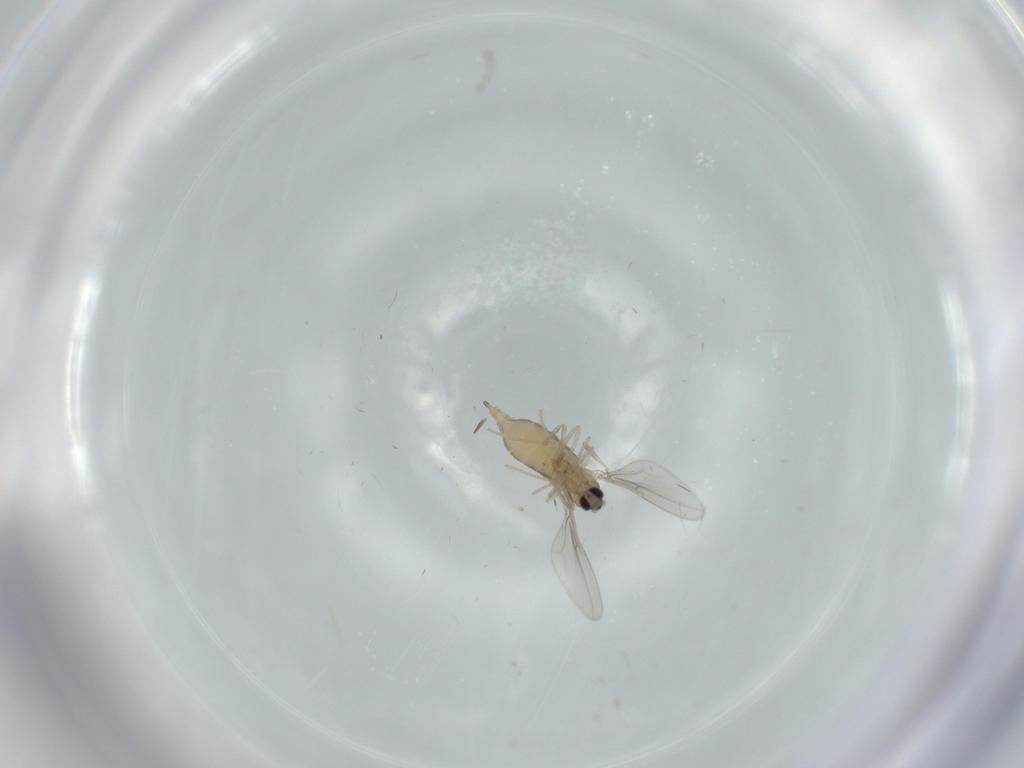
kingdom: Animalia
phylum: Arthropoda
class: Insecta
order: Diptera
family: Cecidomyiidae
